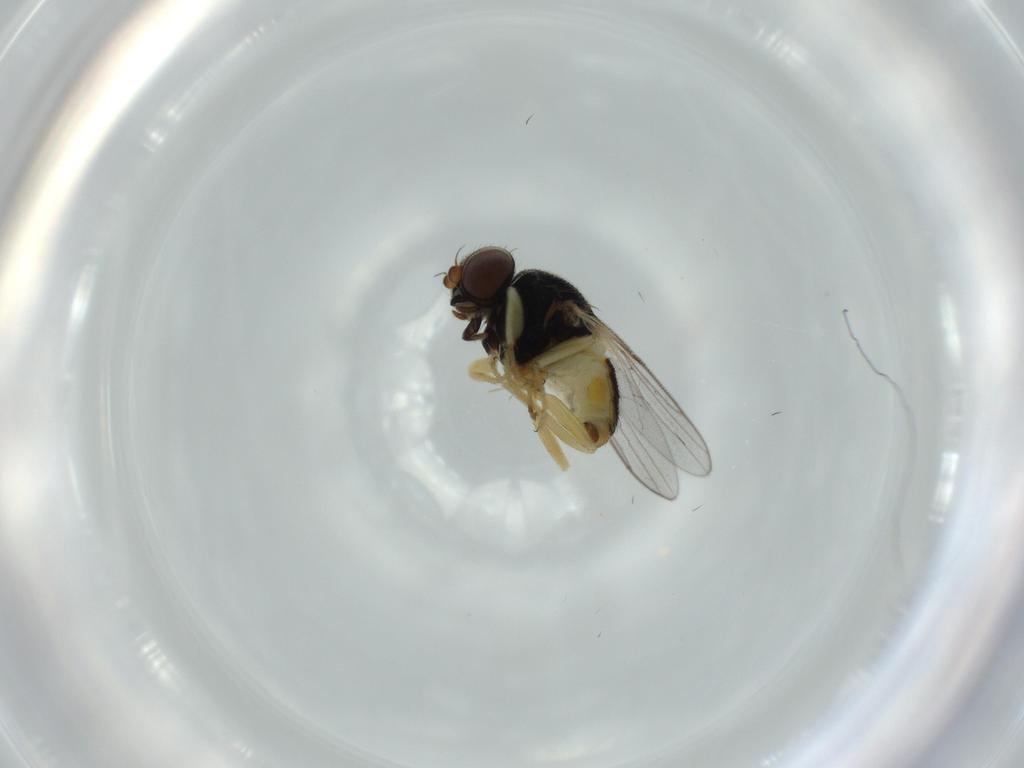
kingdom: Animalia
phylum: Arthropoda
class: Insecta
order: Diptera
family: Chloropidae
